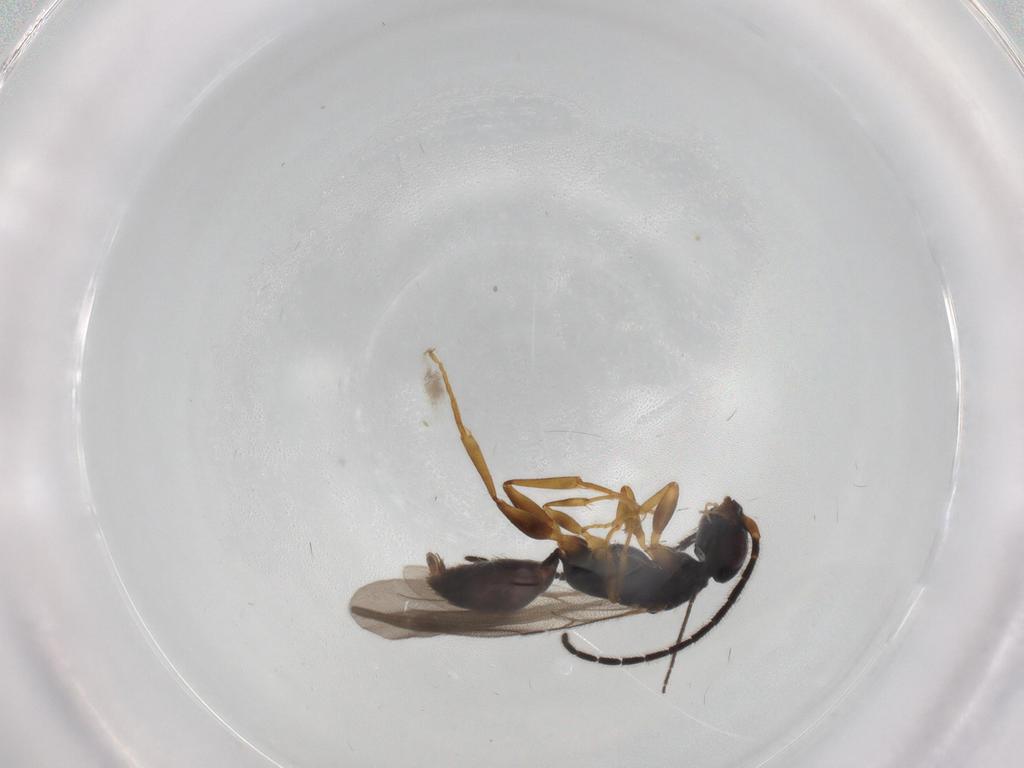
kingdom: Animalia
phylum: Arthropoda
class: Insecta
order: Hymenoptera
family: Bethylidae
